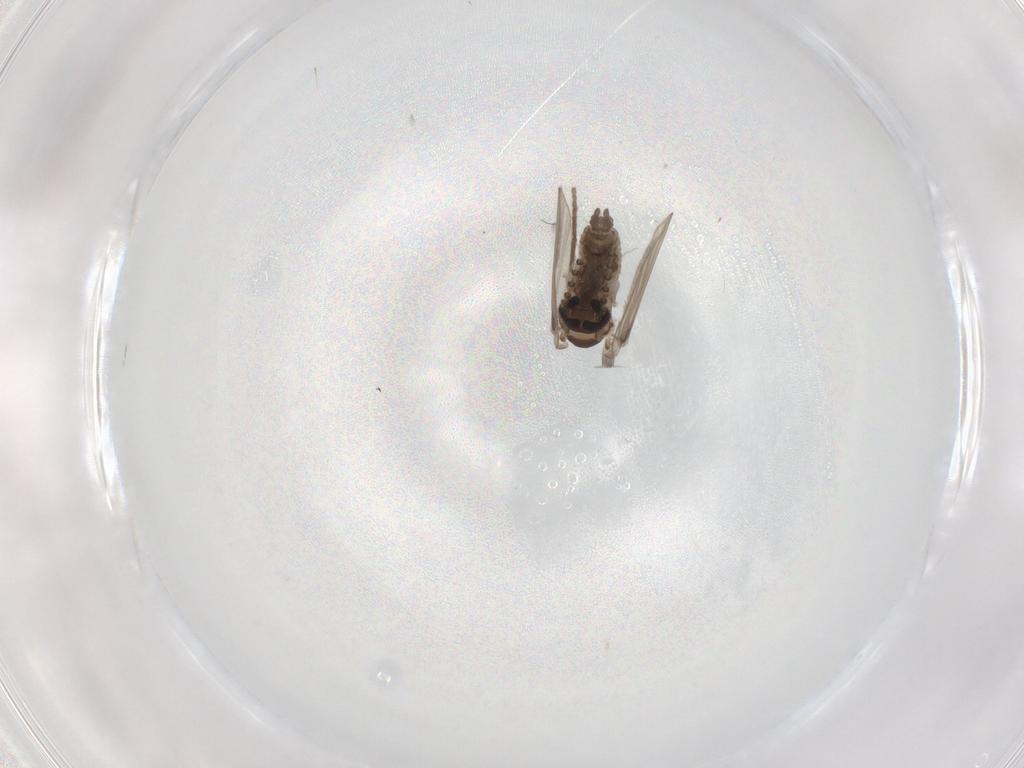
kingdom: Animalia
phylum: Arthropoda
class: Insecta
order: Diptera
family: Psychodidae
